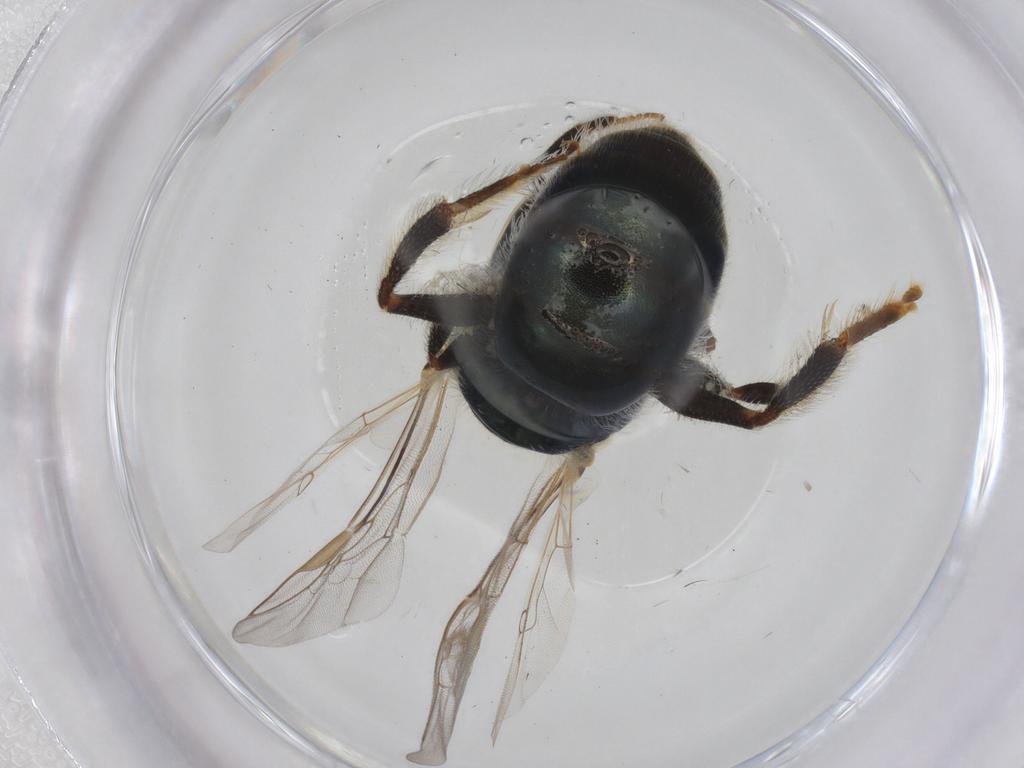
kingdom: Animalia
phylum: Arthropoda
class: Insecta
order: Hymenoptera
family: Halictidae
